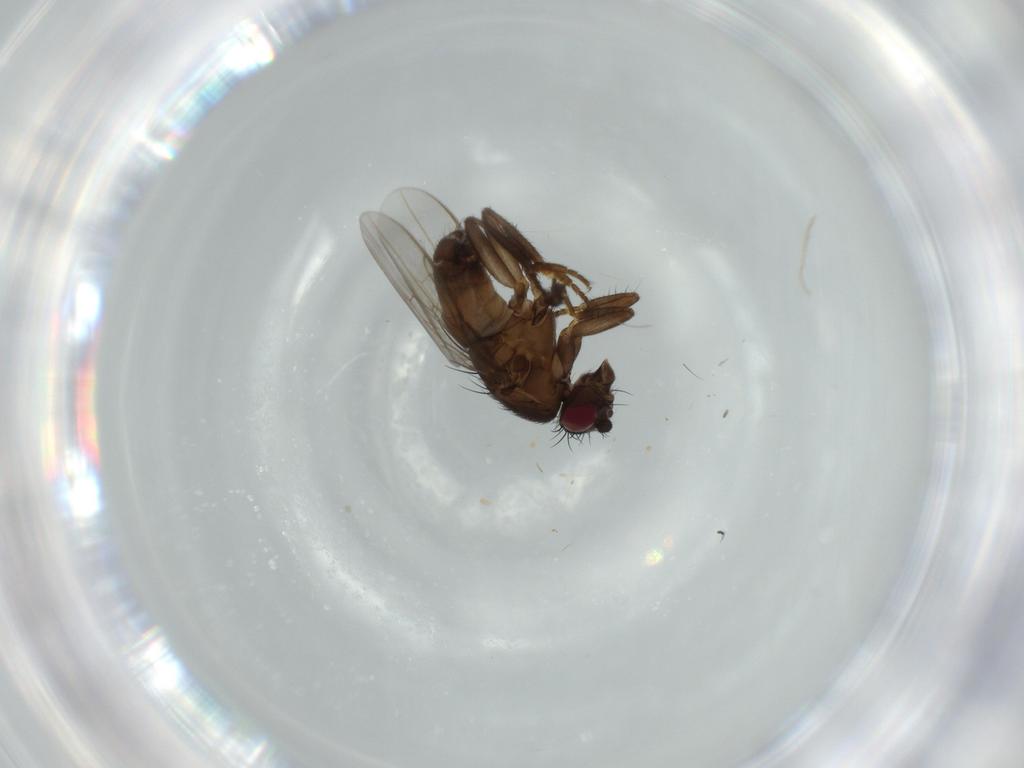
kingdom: Animalia
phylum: Arthropoda
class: Insecta
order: Diptera
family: Sphaeroceridae
